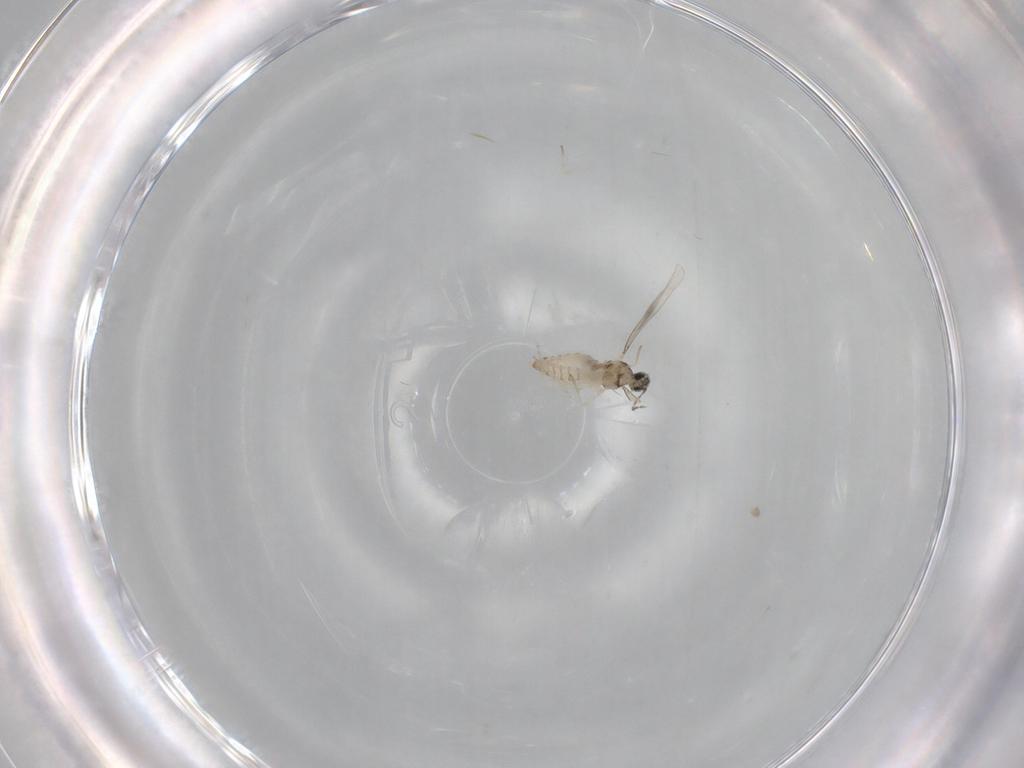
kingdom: Animalia
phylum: Arthropoda
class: Insecta
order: Diptera
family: Cecidomyiidae
